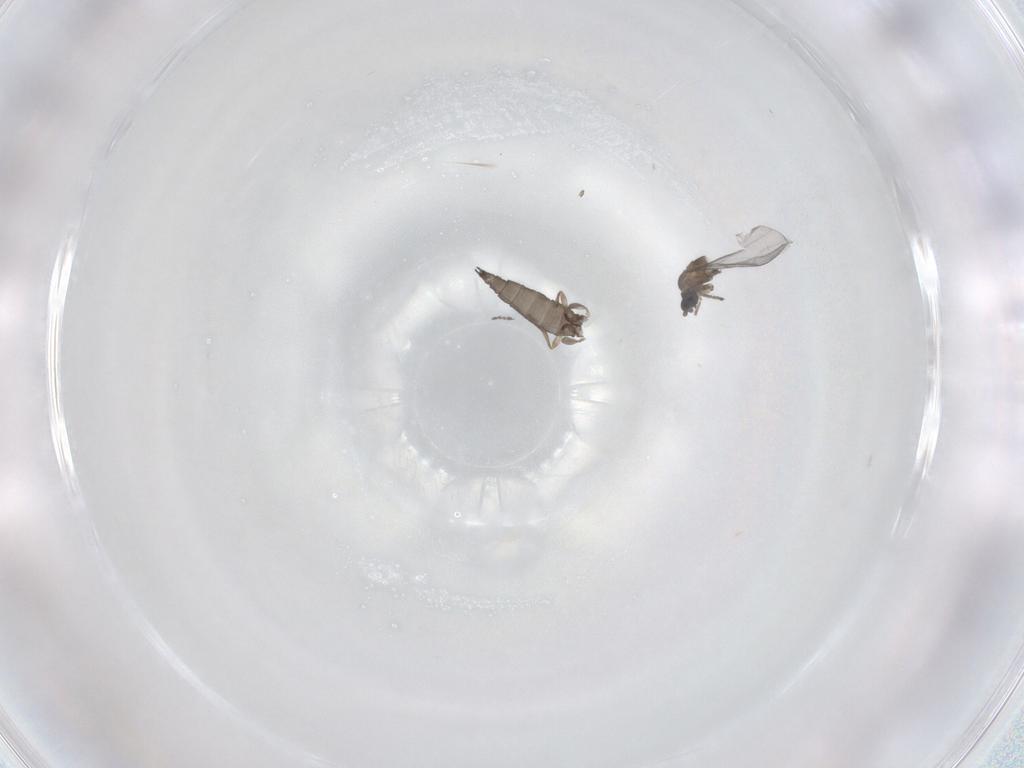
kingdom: Animalia
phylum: Arthropoda
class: Insecta
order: Diptera
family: Sciaridae
